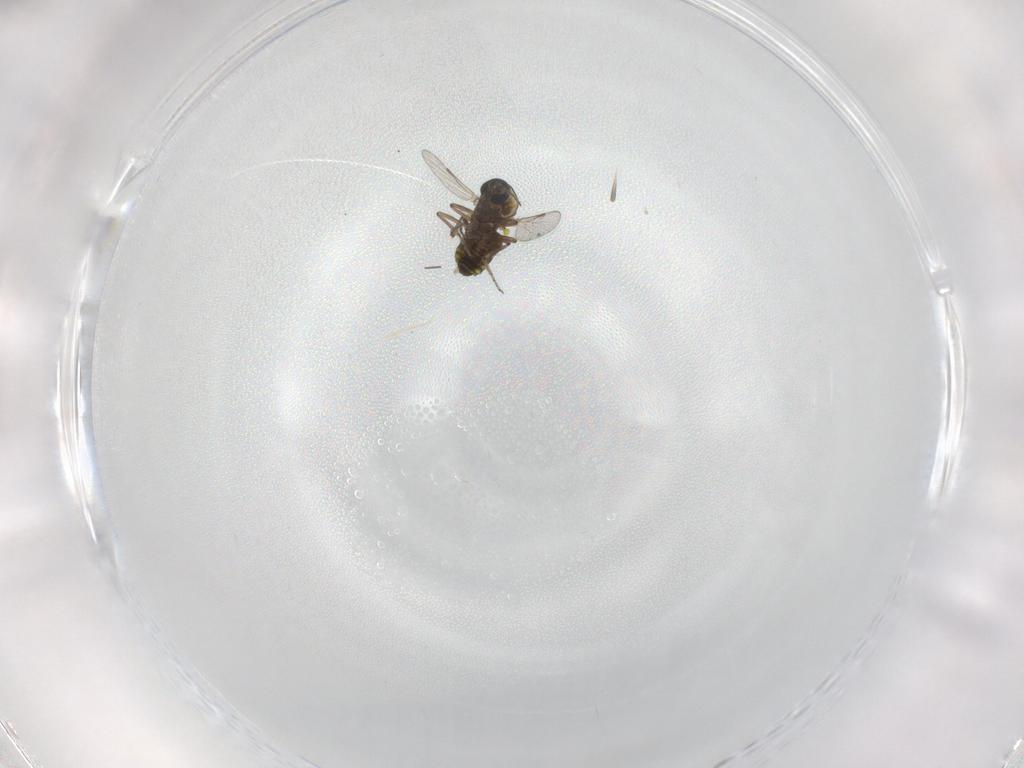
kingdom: Animalia
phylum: Arthropoda
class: Insecta
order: Diptera
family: Ceratopogonidae
